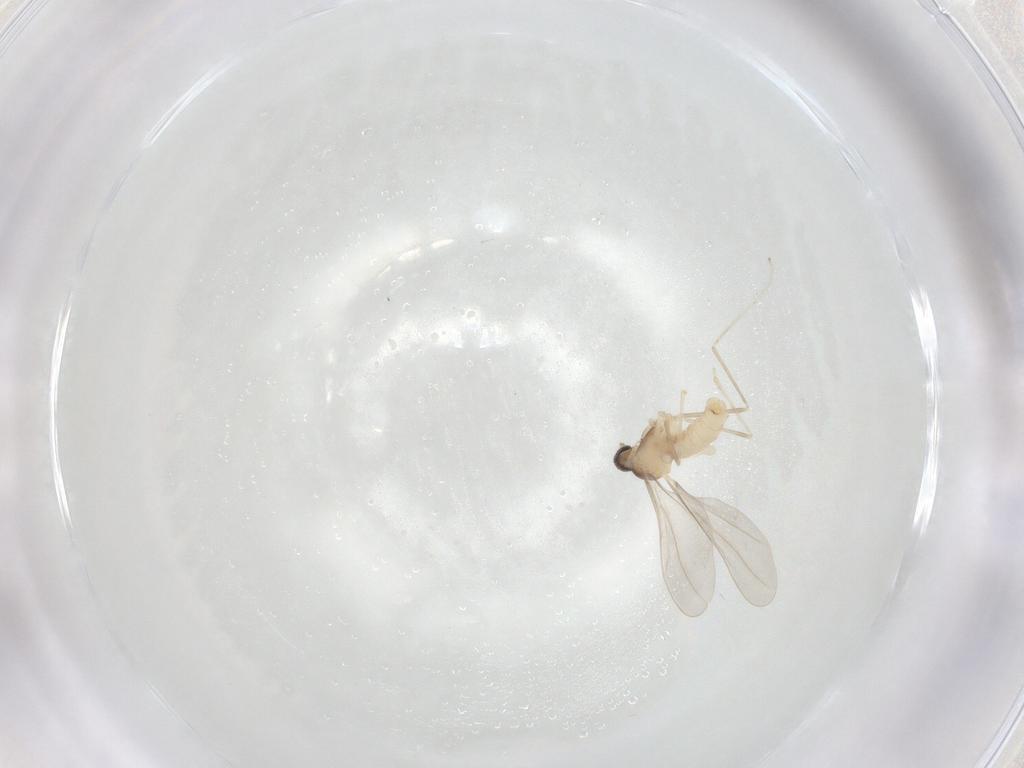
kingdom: Animalia
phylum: Arthropoda
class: Insecta
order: Diptera
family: Cecidomyiidae
